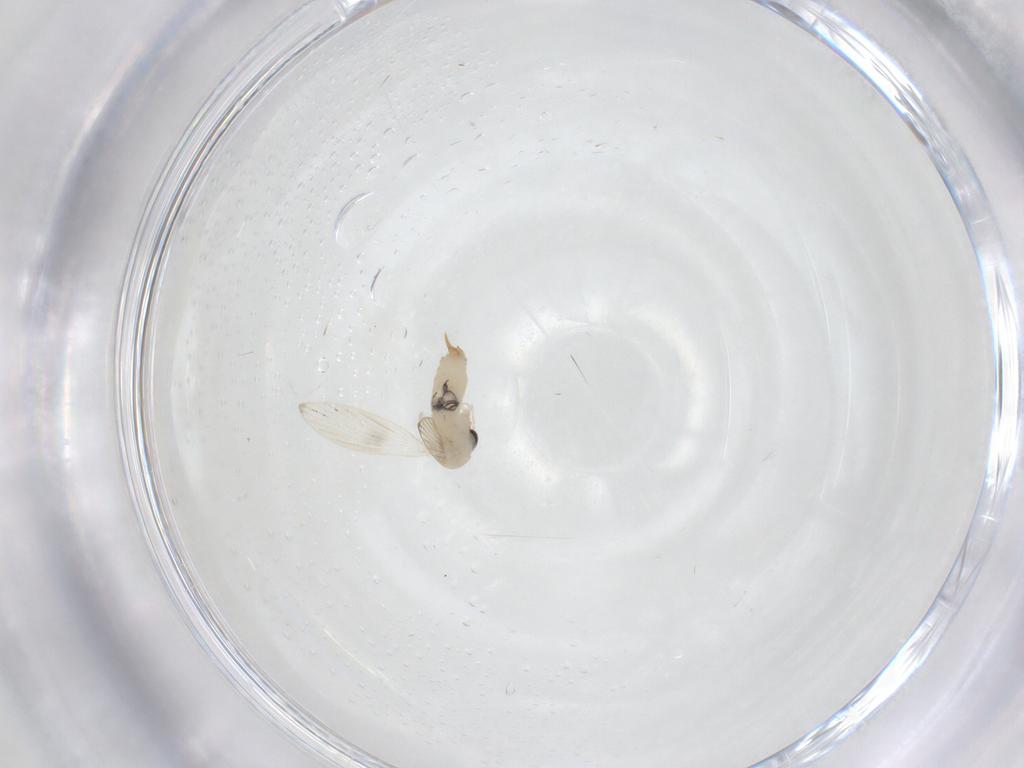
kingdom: Animalia
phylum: Arthropoda
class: Insecta
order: Diptera
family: Psychodidae
